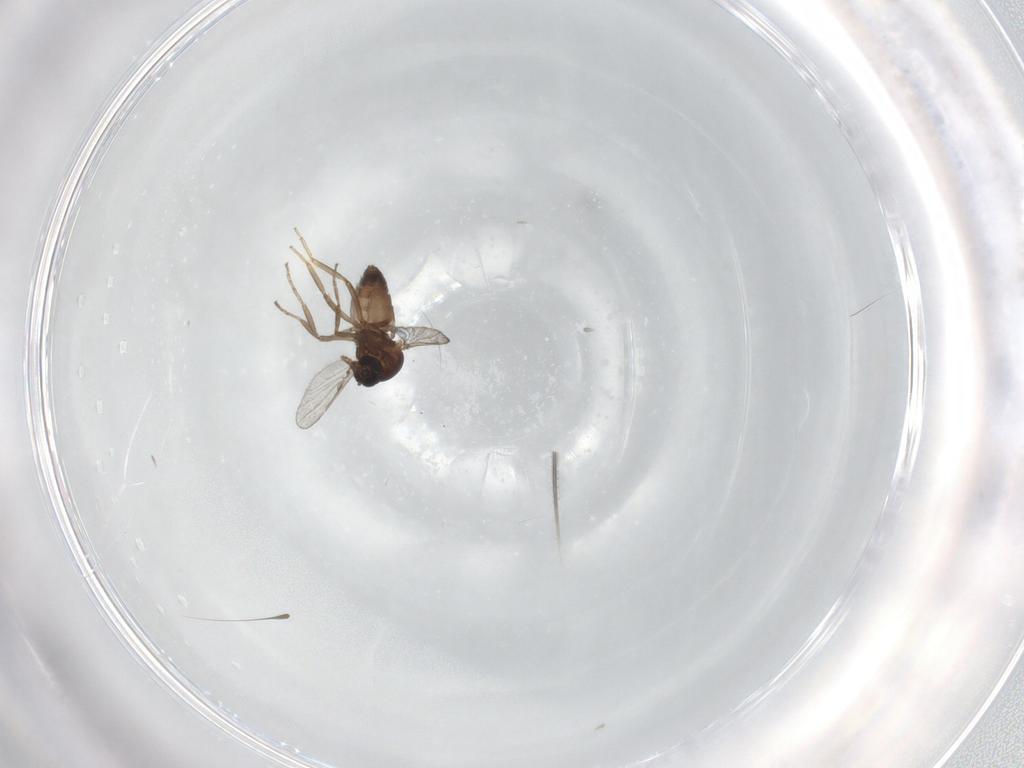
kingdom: Animalia
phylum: Arthropoda
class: Insecta
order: Diptera
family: Ceratopogonidae
